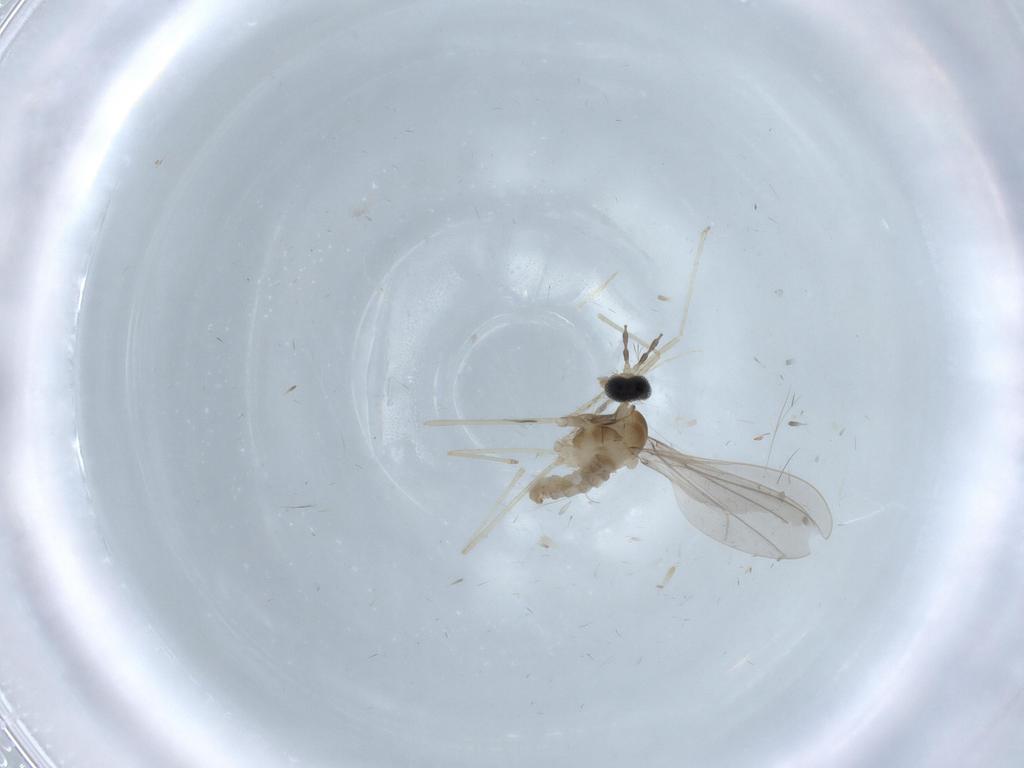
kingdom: Animalia
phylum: Arthropoda
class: Insecta
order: Diptera
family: Cecidomyiidae
